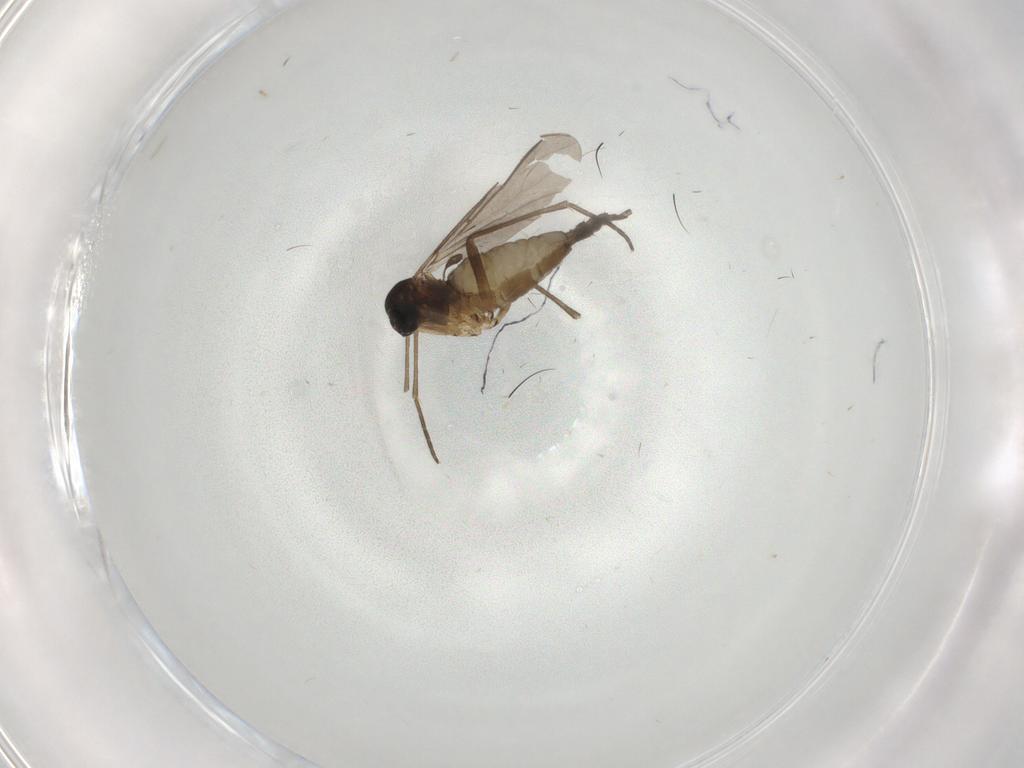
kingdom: Animalia
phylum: Arthropoda
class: Insecta
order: Diptera
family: Sciaridae
